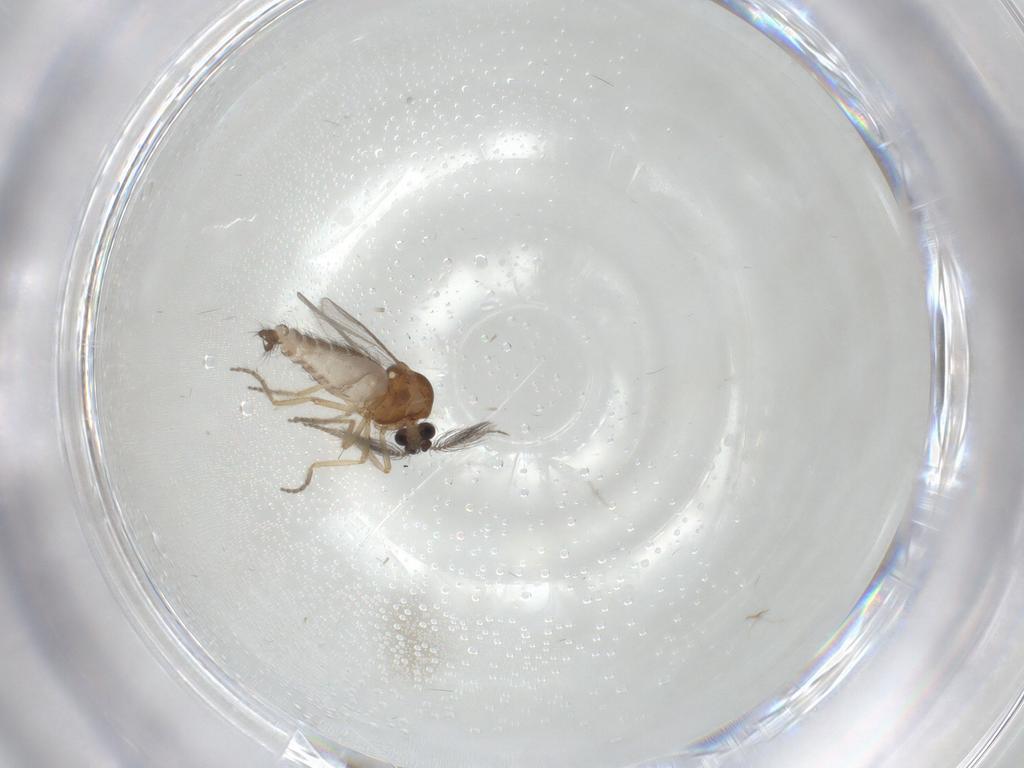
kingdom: Animalia
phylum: Arthropoda
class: Insecta
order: Diptera
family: Ceratopogonidae
